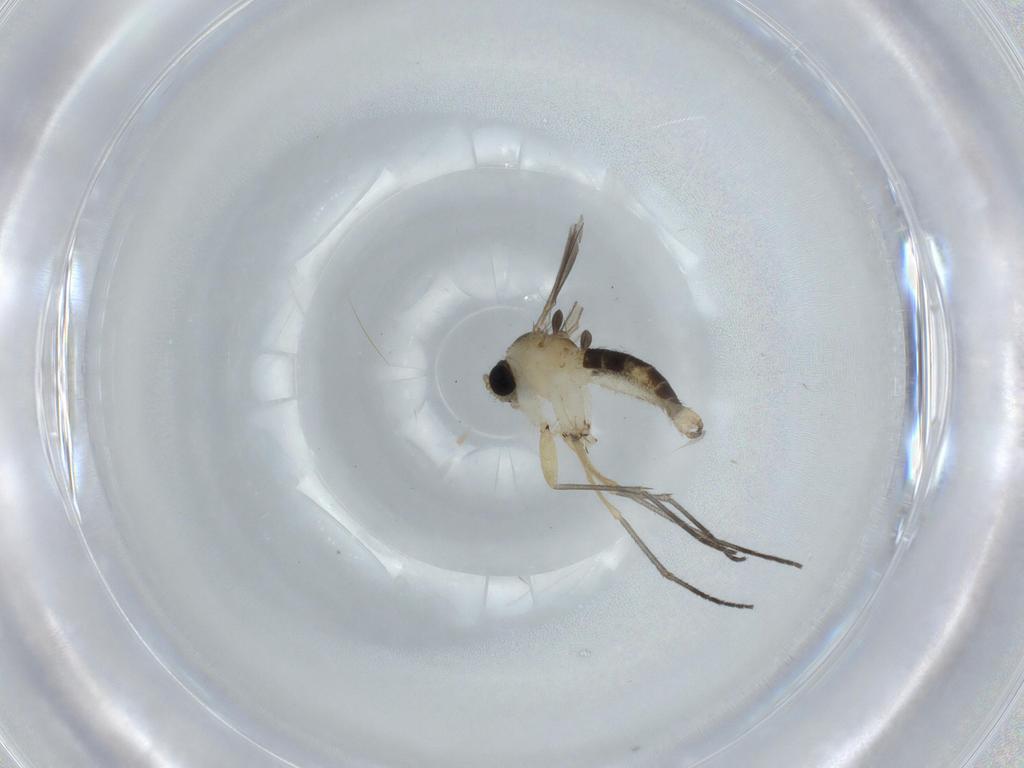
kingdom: Animalia
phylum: Arthropoda
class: Insecta
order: Diptera
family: Sciaridae
